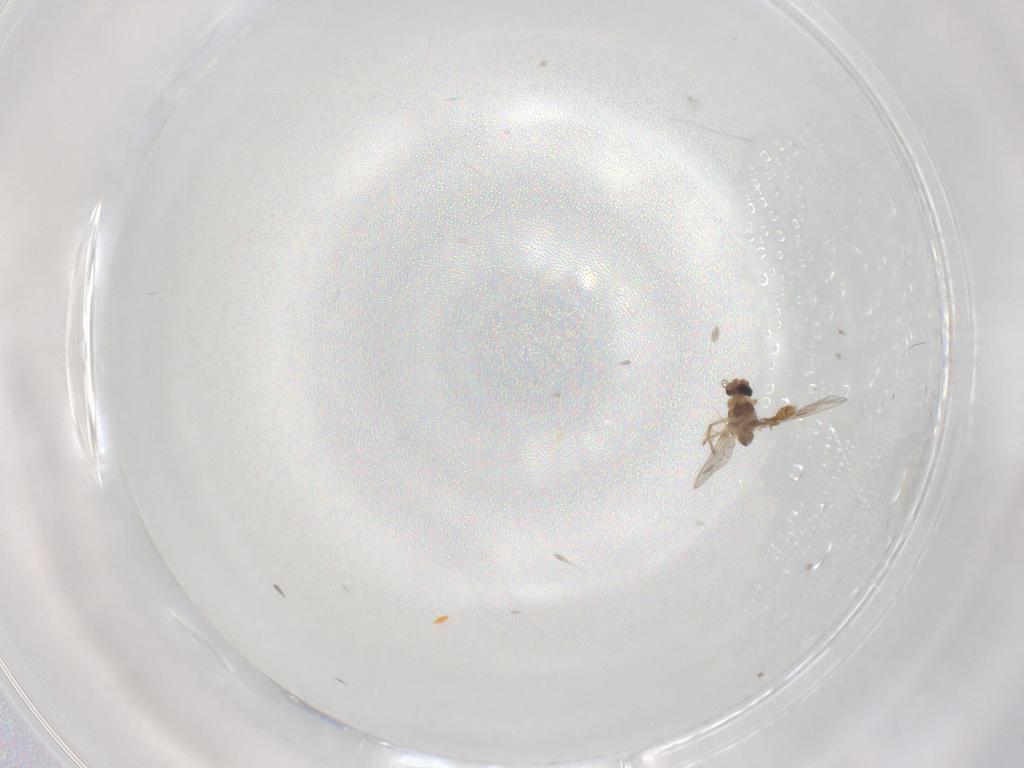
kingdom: Animalia
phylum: Arthropoda
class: Insecta
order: Diptera
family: Chironomidae
